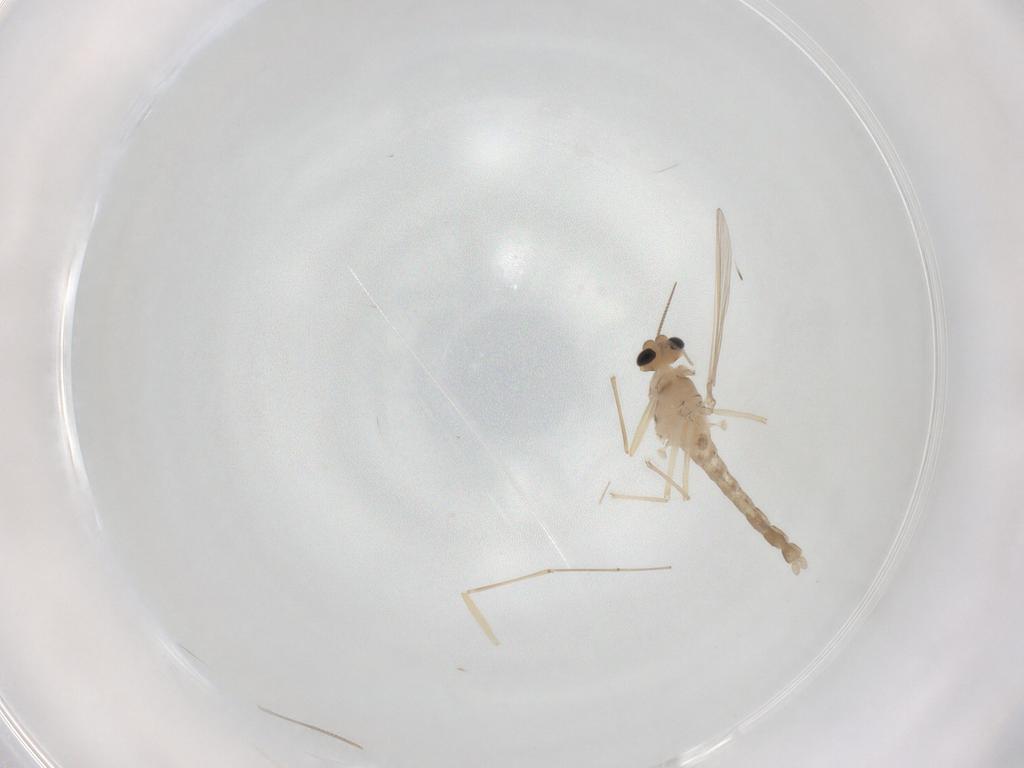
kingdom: Animalia
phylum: Arthropoda
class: Insecta
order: Diptera
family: Chironomidae
